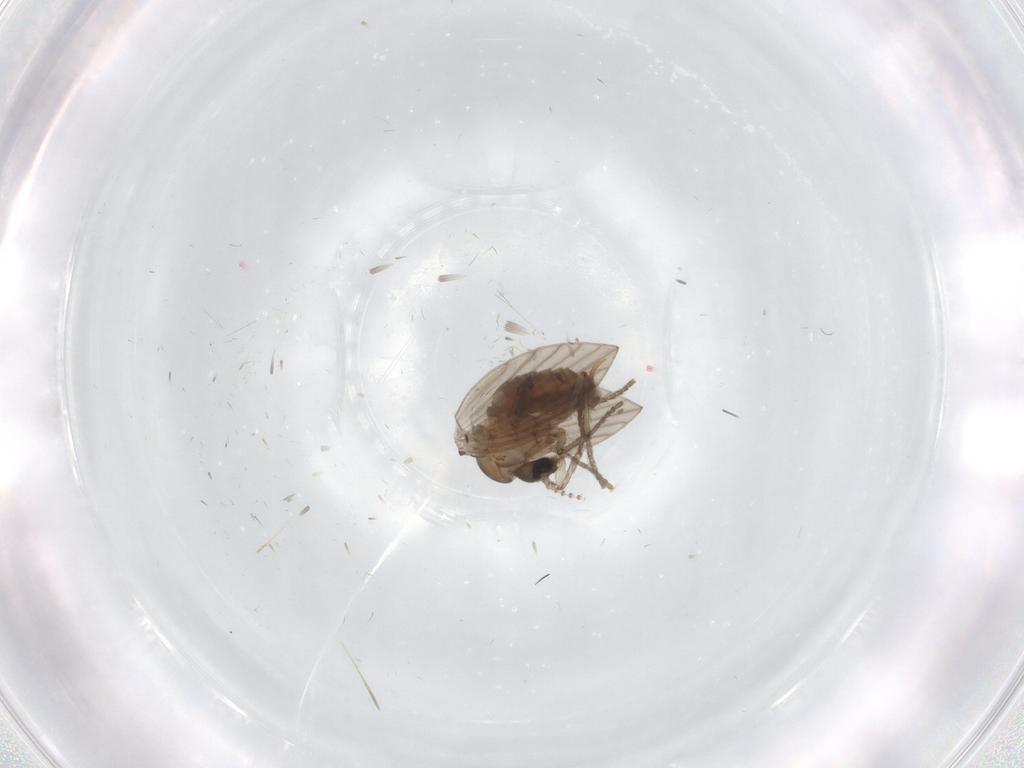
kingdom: Animalia
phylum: Arthropoda
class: Insecta
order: Diptera
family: Psychodidae
